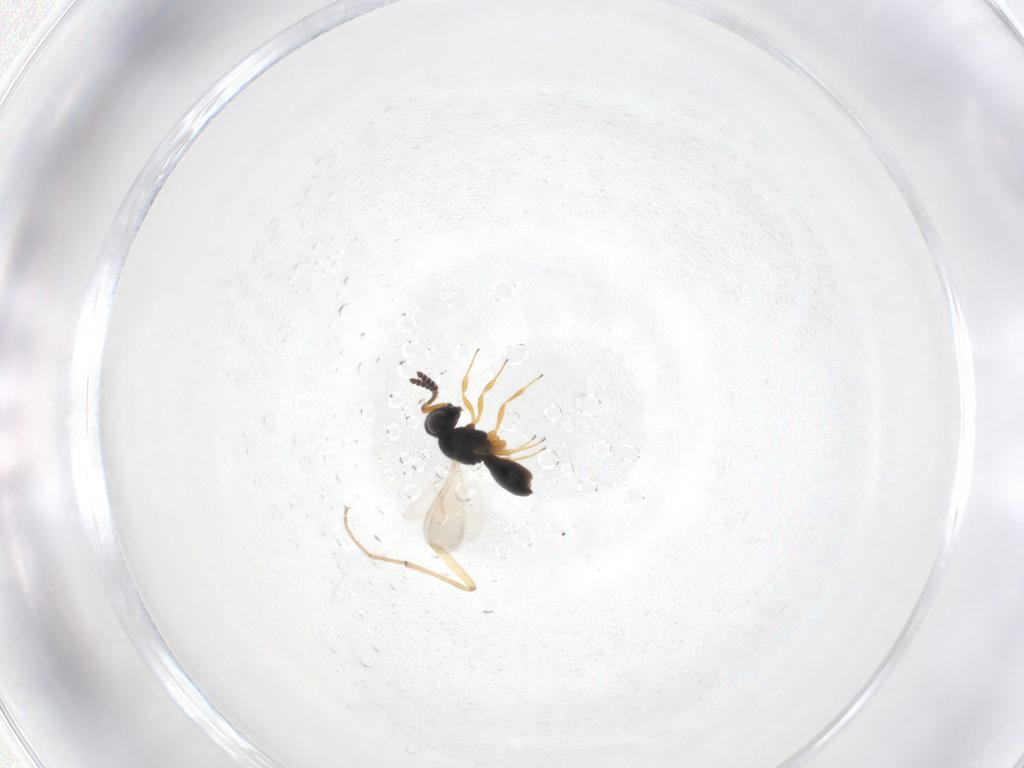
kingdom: Animalia
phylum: Arthropoda
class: Insecta
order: Hymenoptera
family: Scelionidae
